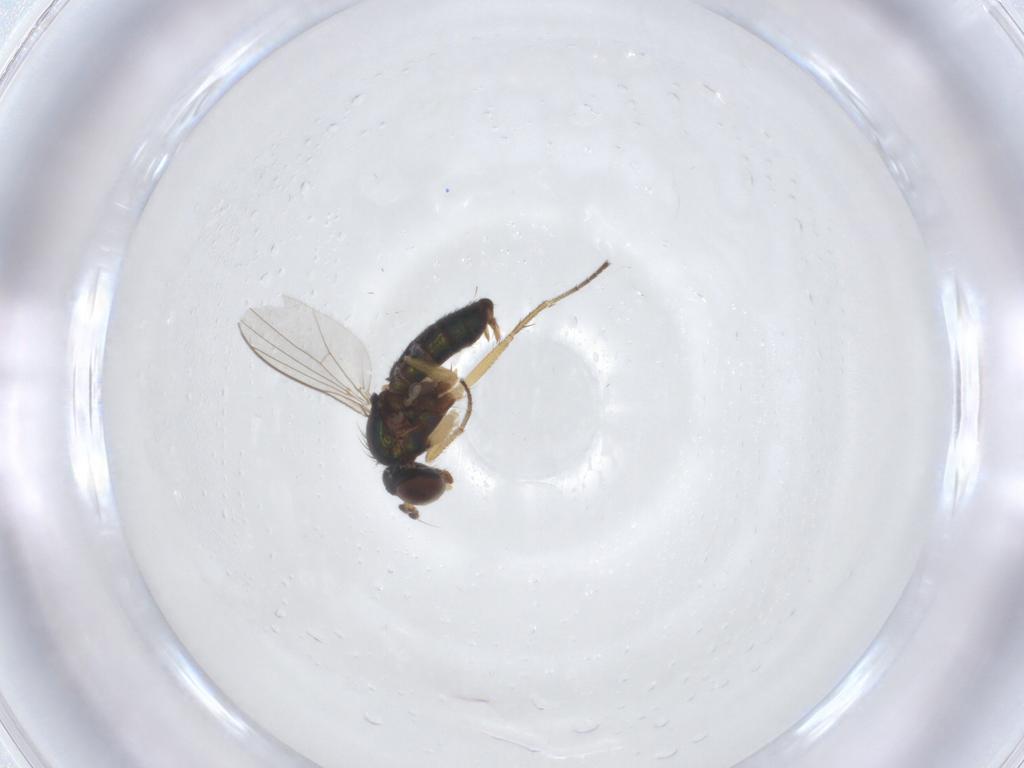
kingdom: Animalia
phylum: Arthropoda
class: Insecta
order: Diptera
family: Dolichopodidae
